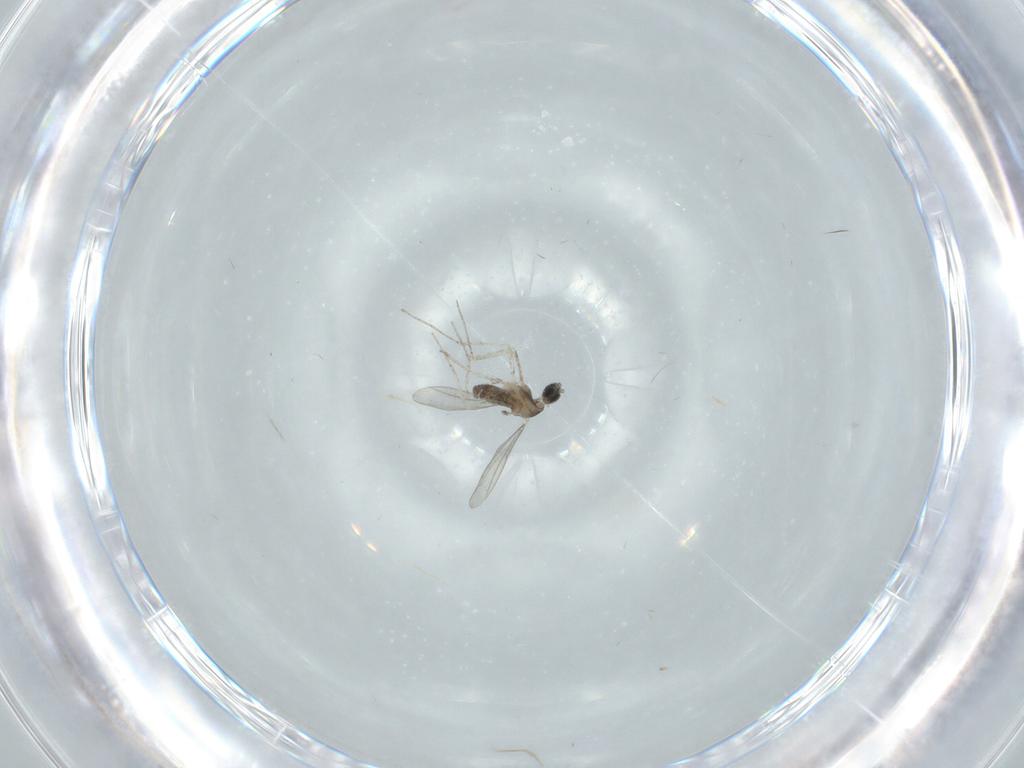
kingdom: Animalia
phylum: Arthropoda
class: Insecta
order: Diptera
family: Cecidomyiidae
